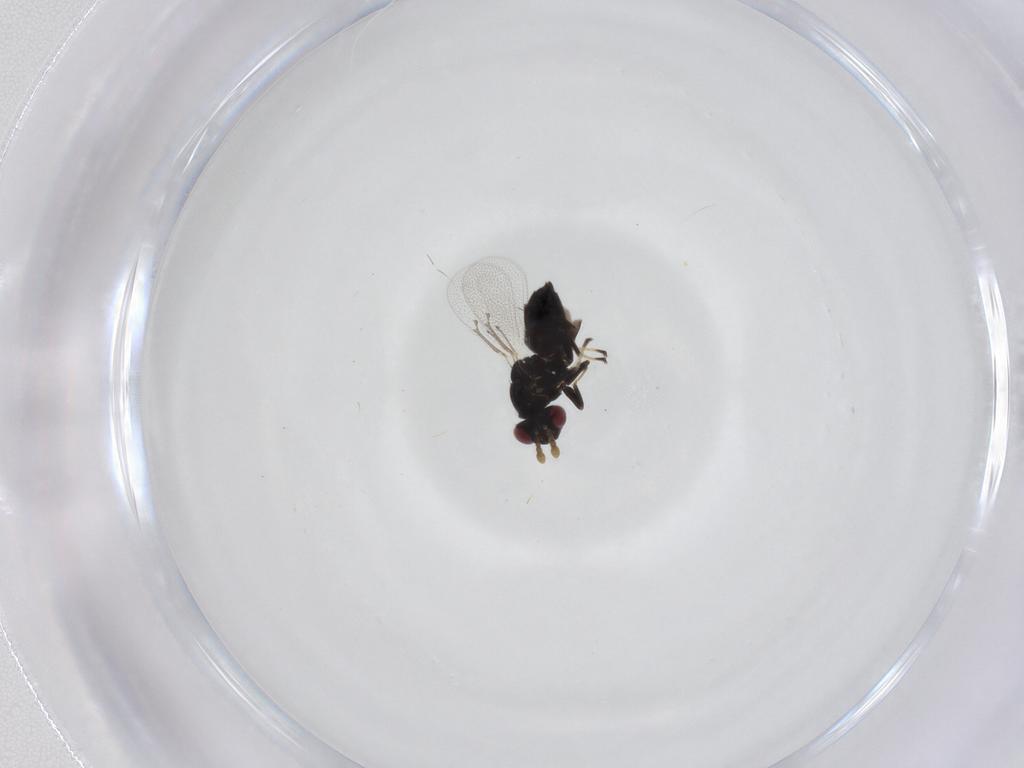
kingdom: Animalia
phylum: Arthropoda
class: Insecta
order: Hymenoptera
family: Eulophidae
